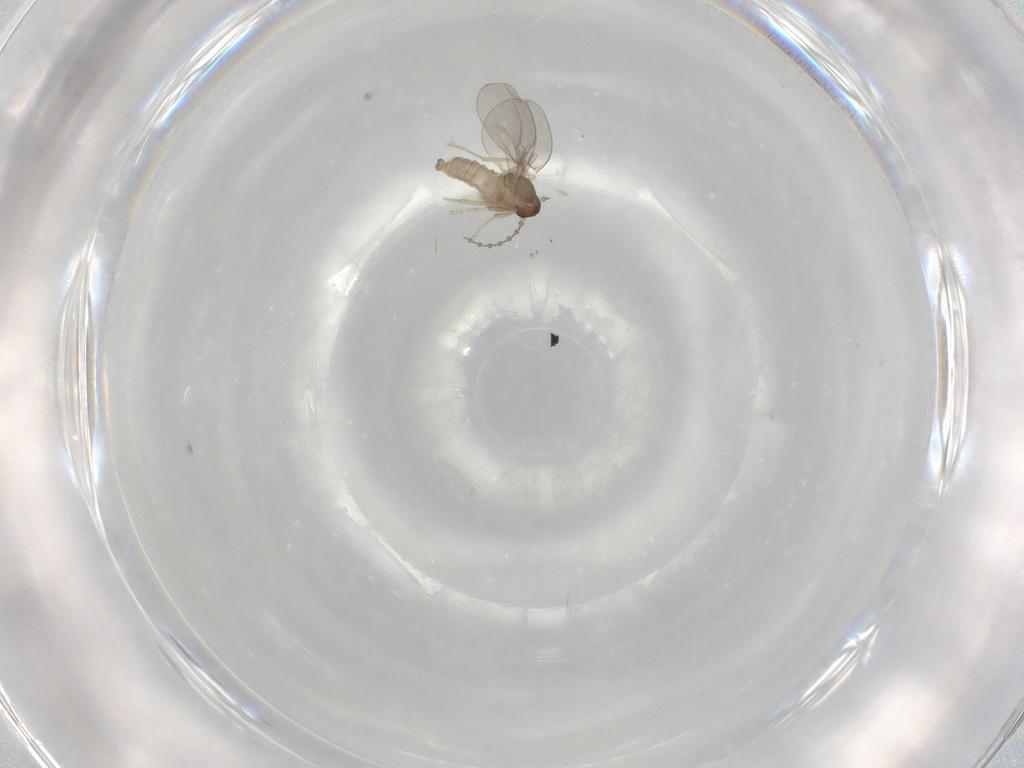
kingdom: Animalia
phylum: Arthropoda
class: Insecta
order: Diptera
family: Cecidomyiidae
